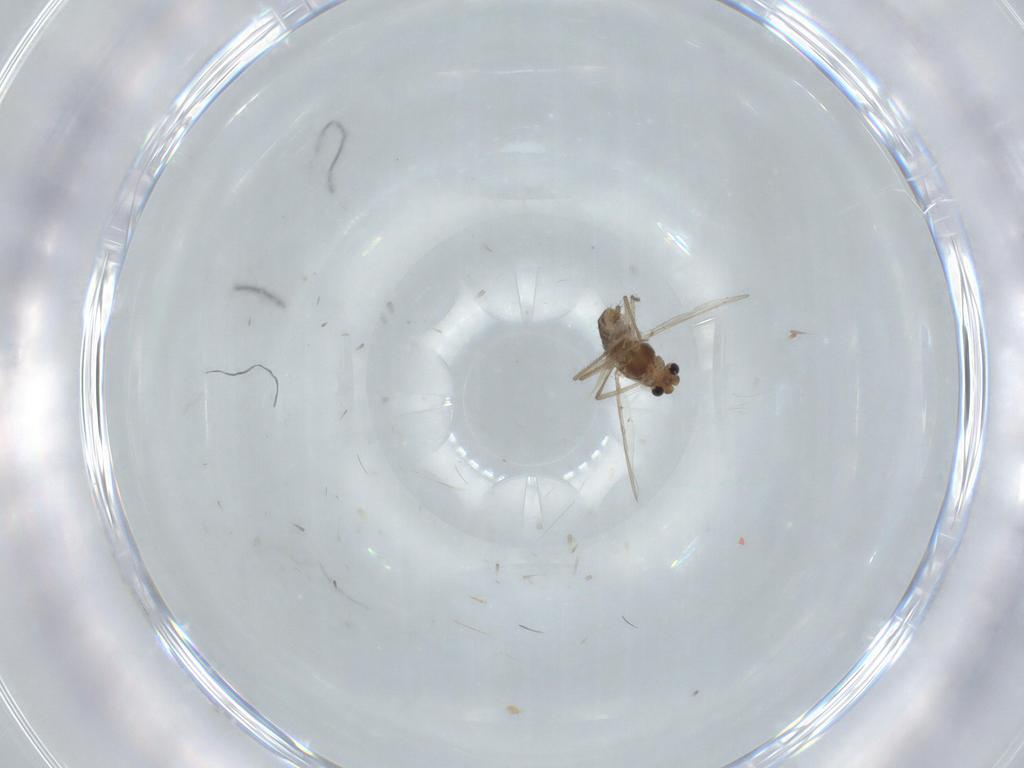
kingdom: Animalia
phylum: Arthropoda
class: Insecta
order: Diptera
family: Chironomidae
